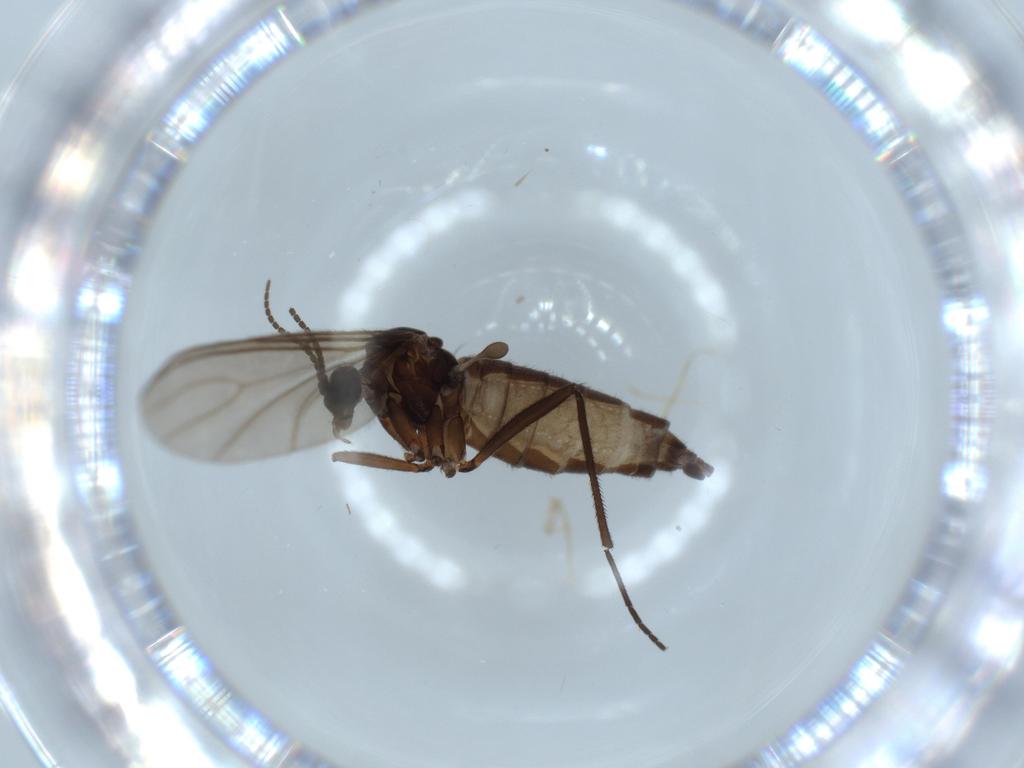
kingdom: Animalia
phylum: Arthropoda
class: Insecta
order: Diptera
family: Sciaridae
